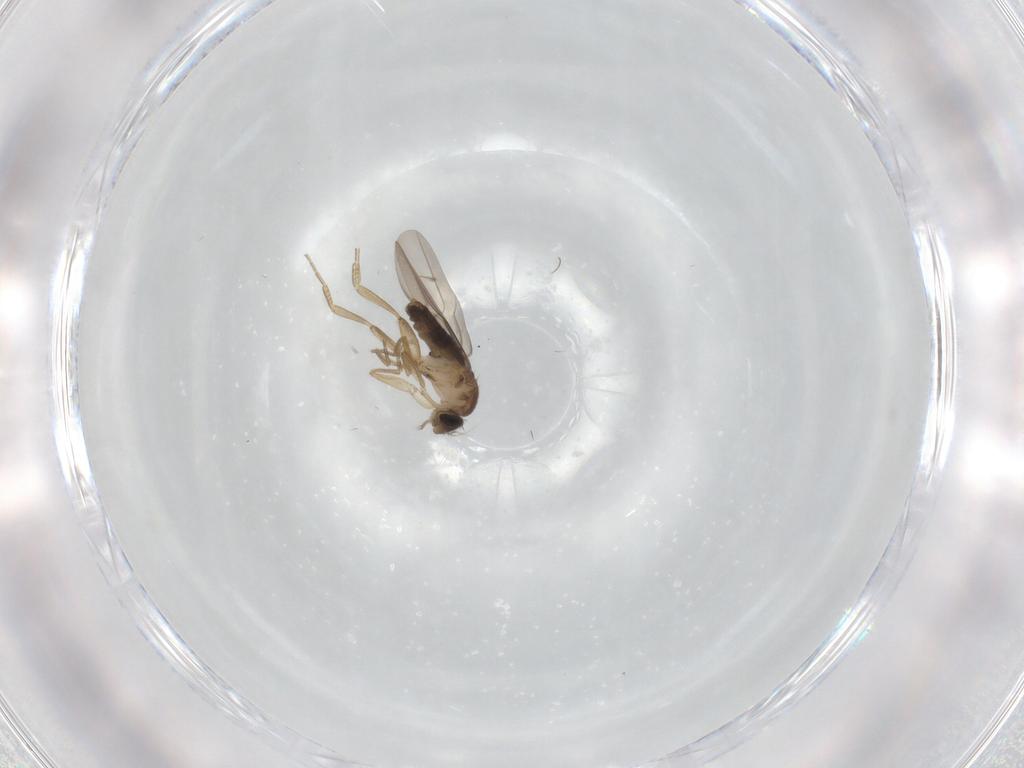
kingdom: Animalia
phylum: Arthropoda
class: Insecta
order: Diptera
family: Phoridae
